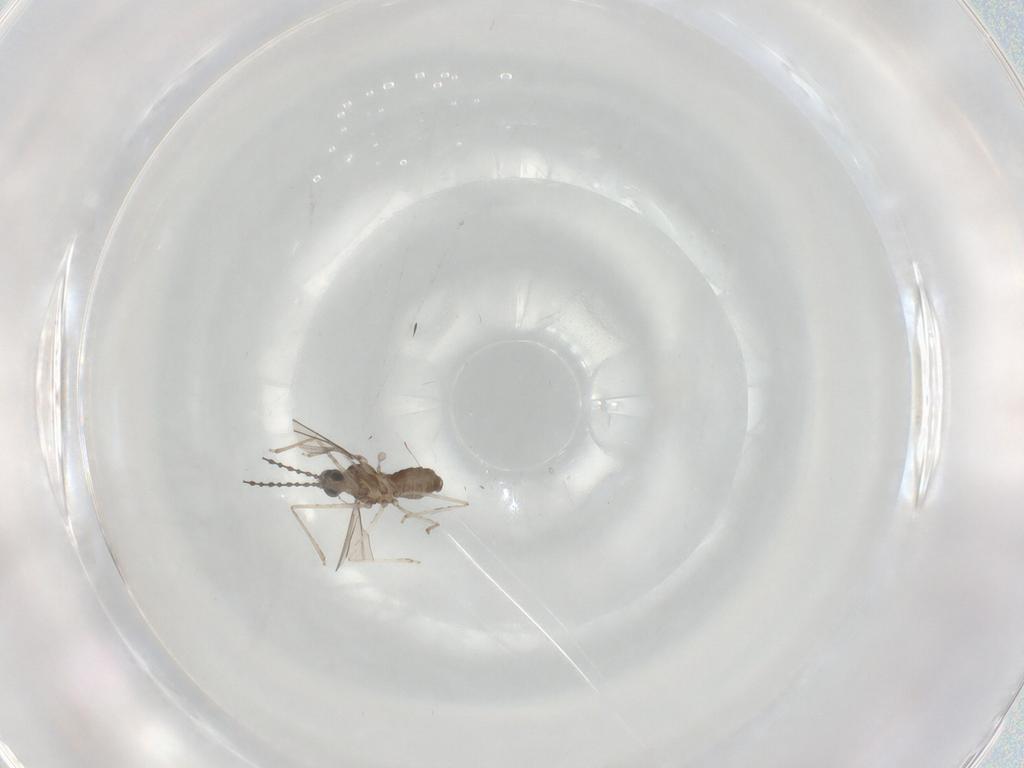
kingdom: Animalia
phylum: Arthropoda
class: Insecta
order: Diptera
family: Cecidomyiidae
